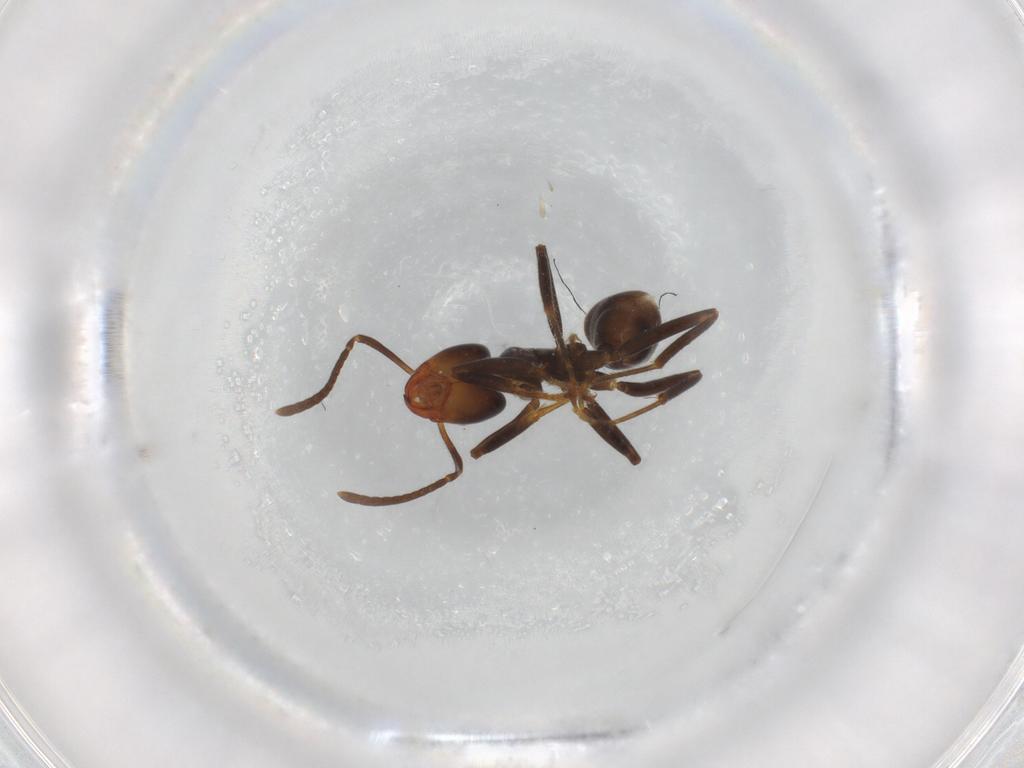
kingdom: Animalia
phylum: Arthropoda
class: Insecta
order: Hymenoptera
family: Formicidae
